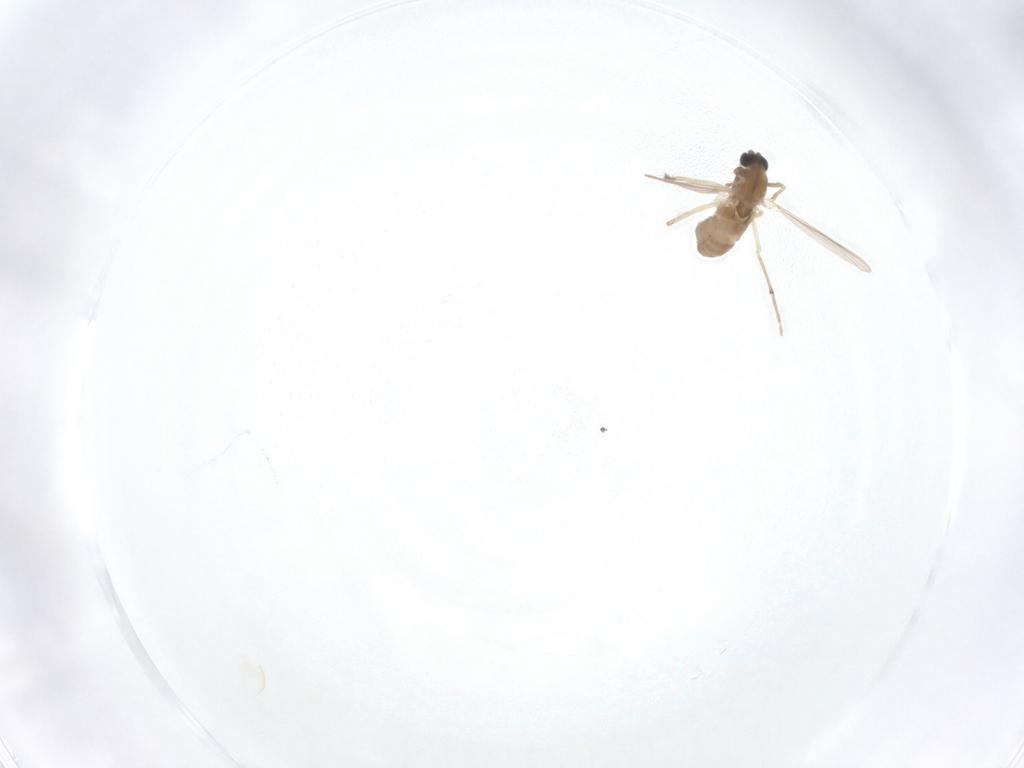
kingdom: Animalia
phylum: Arthropoda
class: Insecta
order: Diptera
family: Chironomidae
